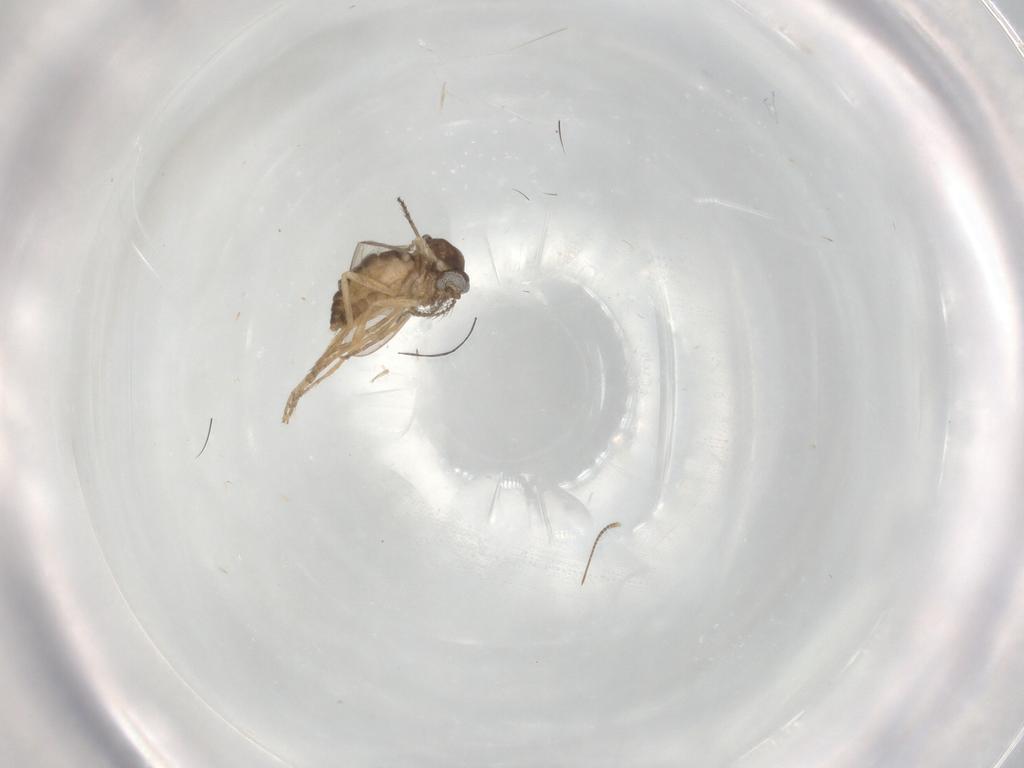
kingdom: Animalia
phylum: Arthropoda
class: Insecta
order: Diptera
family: Ceratopogonidae
